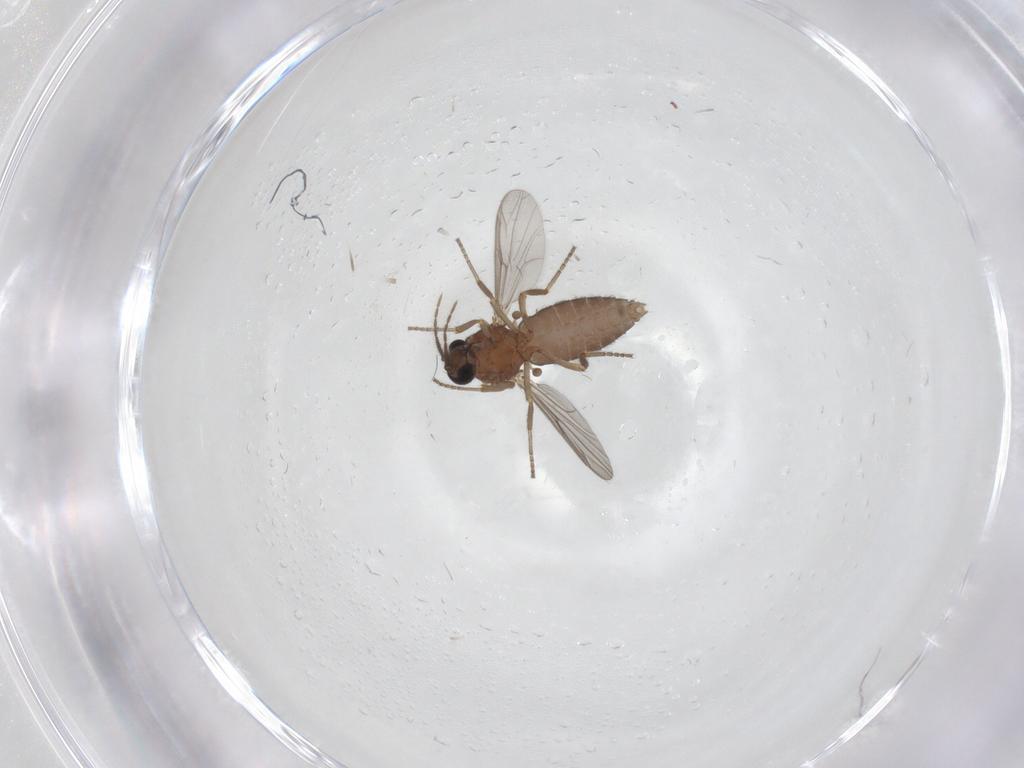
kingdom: Animalia
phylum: Arthropoda
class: Insecta
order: Diptera
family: Ceratopogonidae
